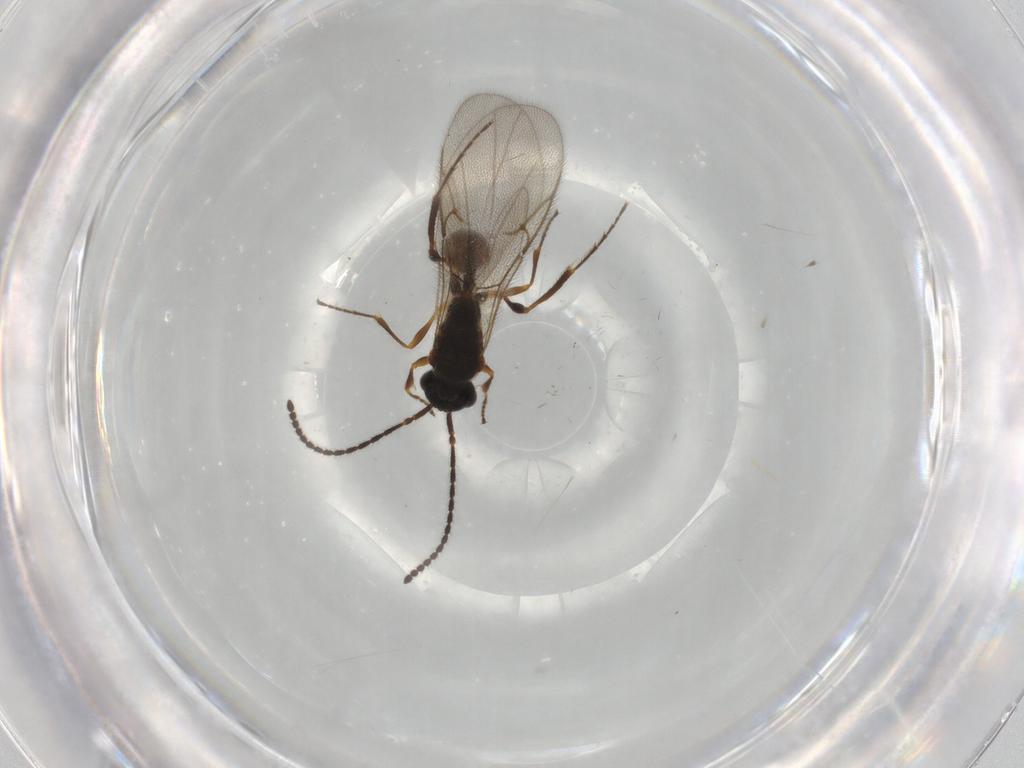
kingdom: Animalia
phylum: Arthropoda
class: Insecta
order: Hymenoptera
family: Diapriidae
